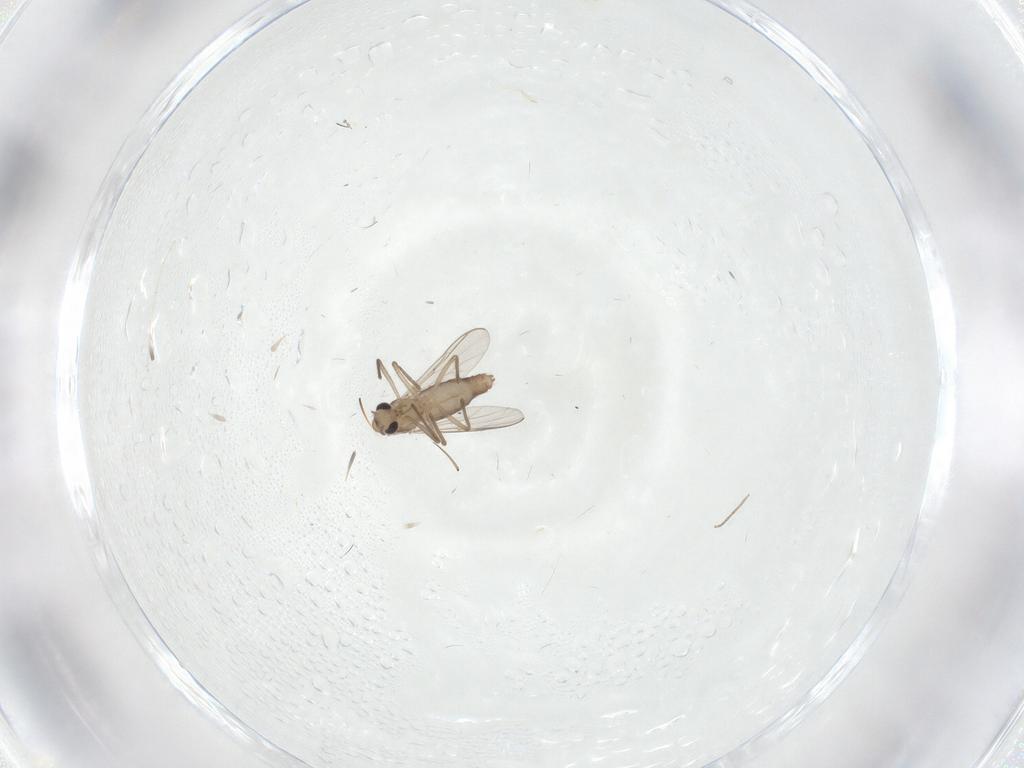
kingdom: Animalia
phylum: Arthropoda
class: Insecta
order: Diptera
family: Chironomidae
